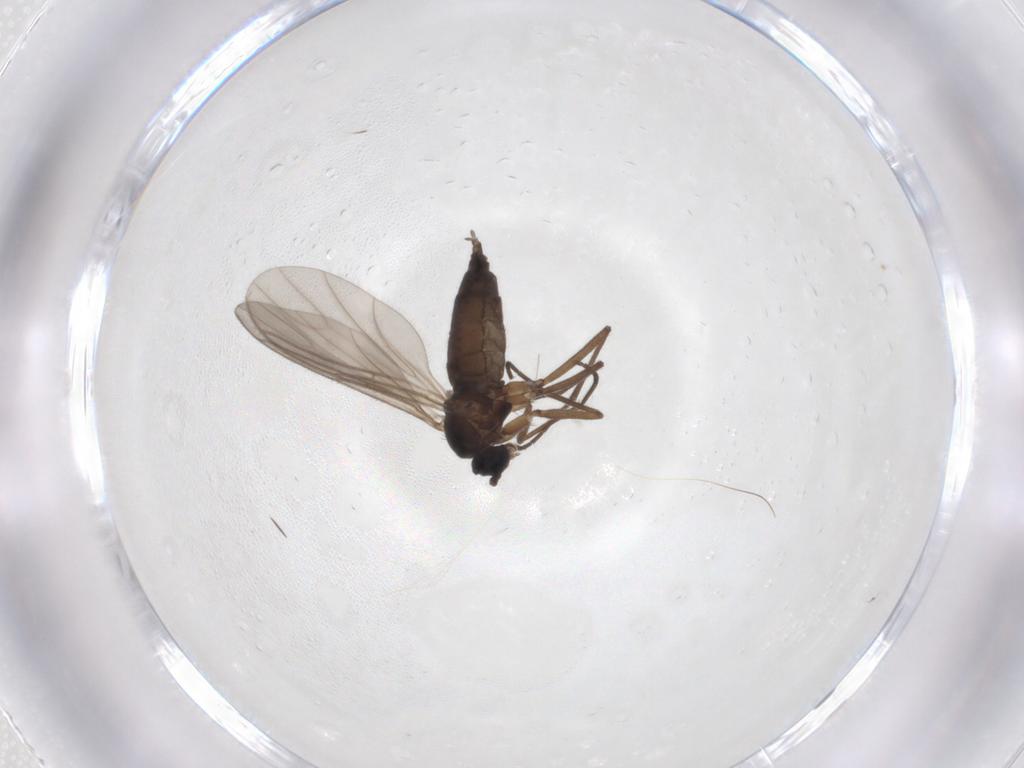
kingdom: Animalia
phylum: Arthropoda
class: Insecta
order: Diptera
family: Sciaridae
